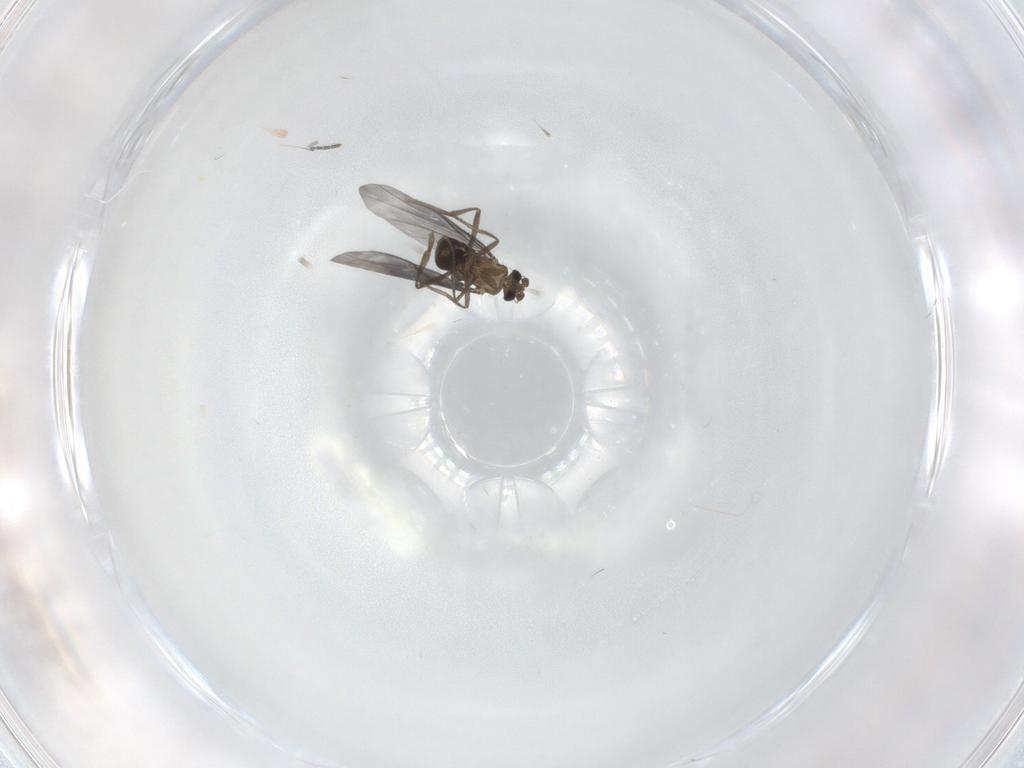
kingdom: Animalia
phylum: Arthropoda
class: Insecta
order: Diptera
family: Phoridae
